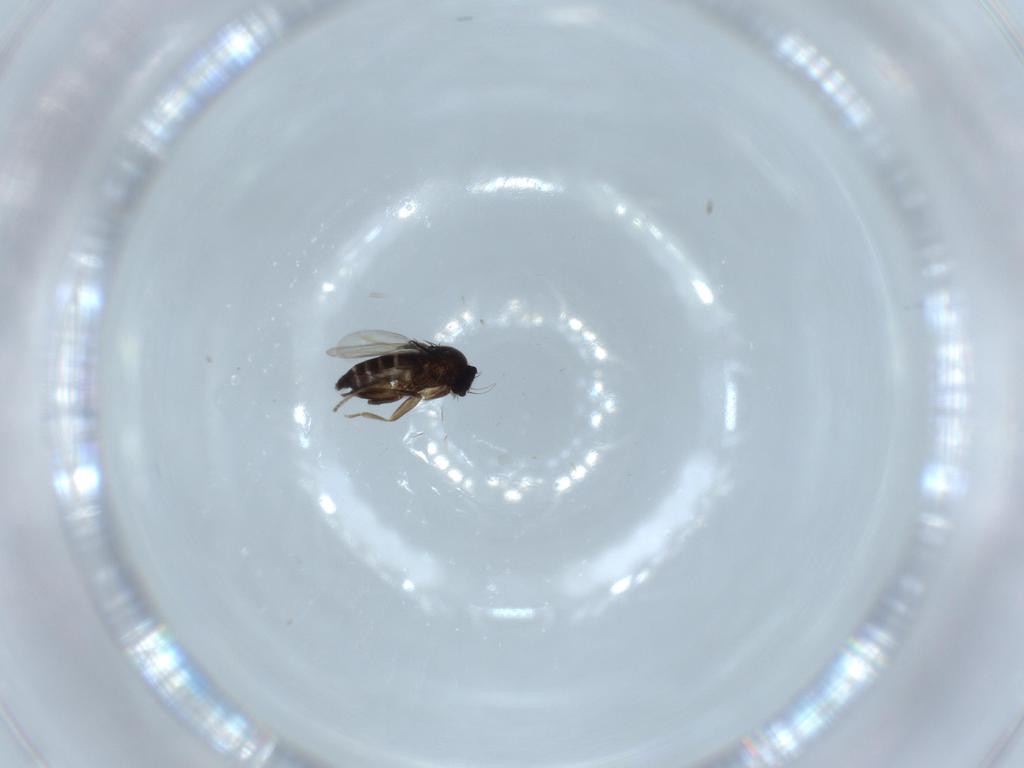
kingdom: Animalia
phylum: Arthropoda
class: Insecta
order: Diptera
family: Phoridae
